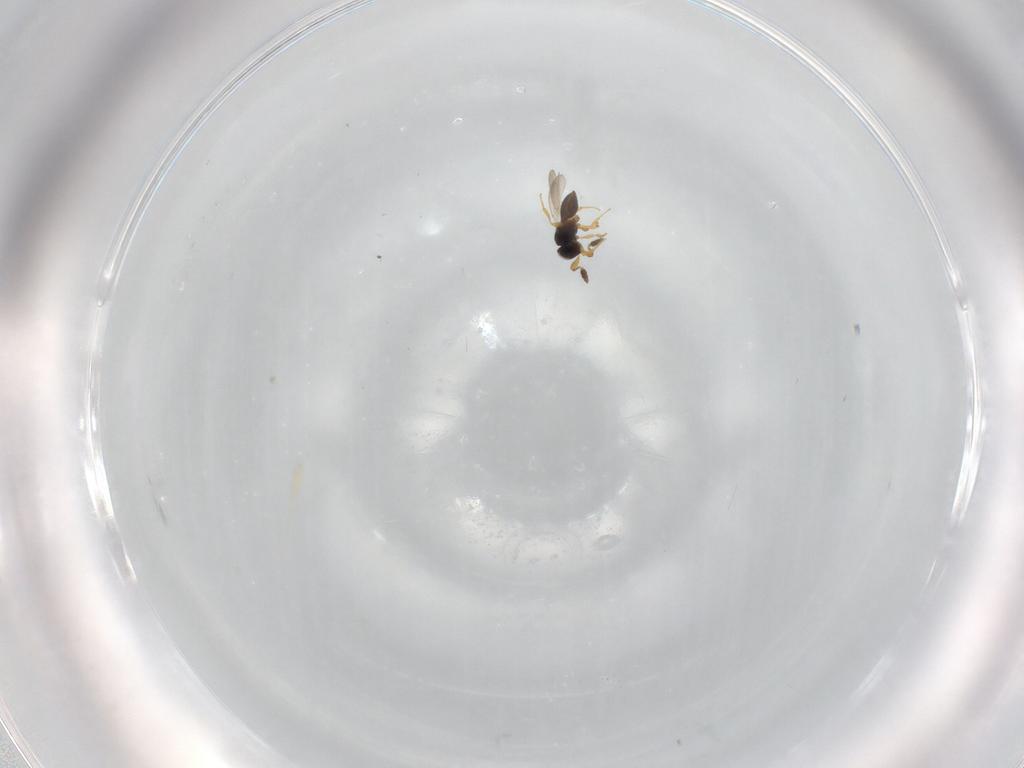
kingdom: Animalia
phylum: Arthropoda
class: Insecta
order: Hymenoptera
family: Platygastridae
